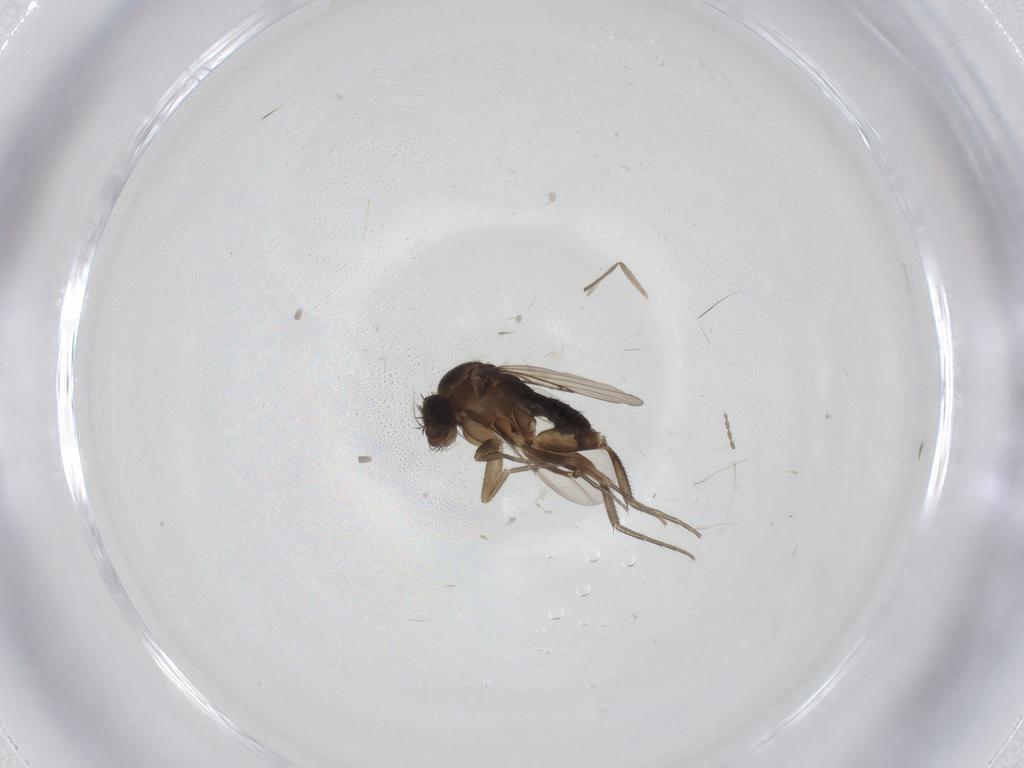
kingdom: Animalia
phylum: Arthropoda
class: Insecta
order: Diptera
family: Phoridae
